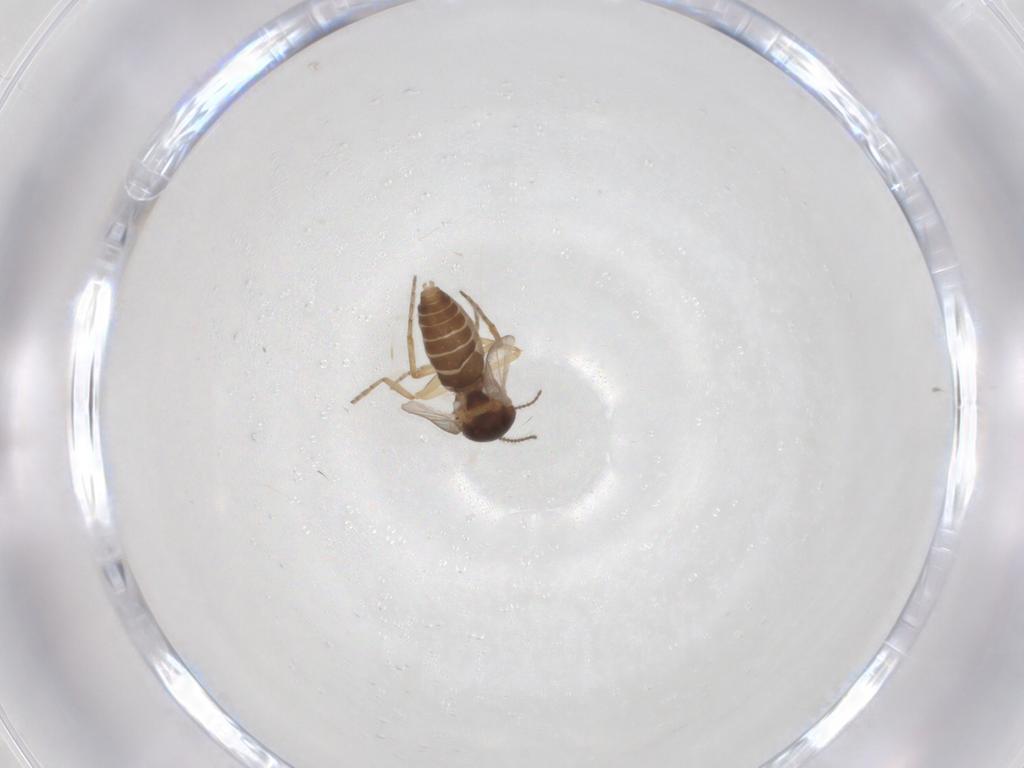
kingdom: Animalia
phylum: Arthropoda
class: Insecta
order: Diptera
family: Ceratopogonidae
